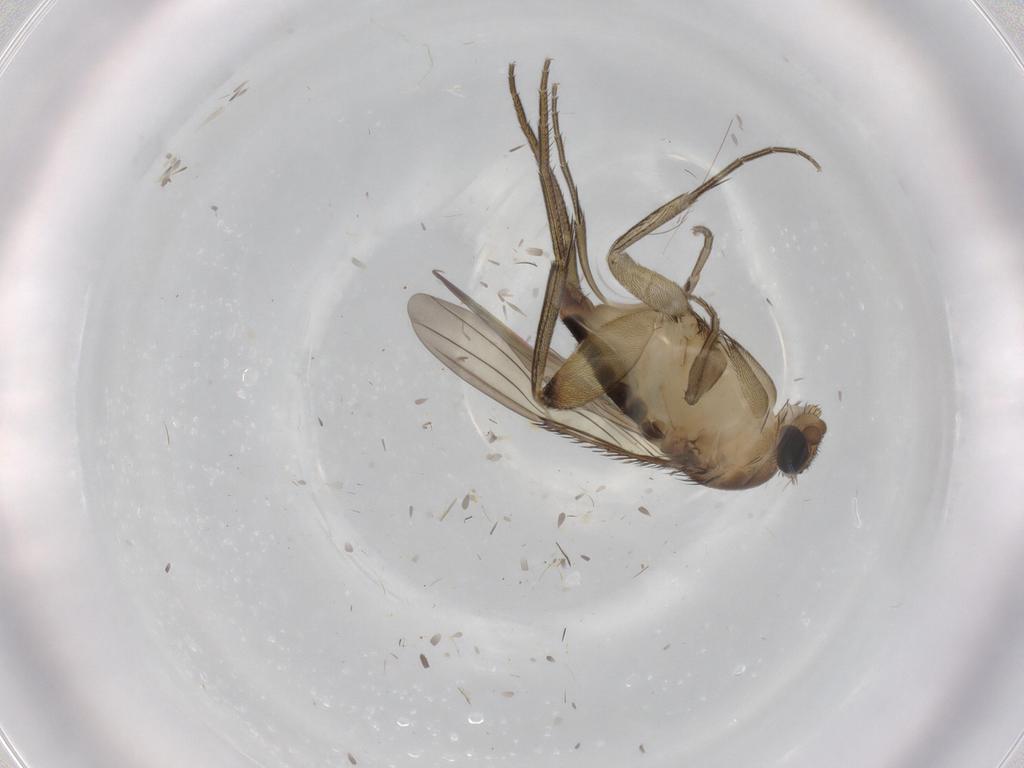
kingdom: Animalia
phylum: Arthropoda
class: Insecta
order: Diptera
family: Phoridae
